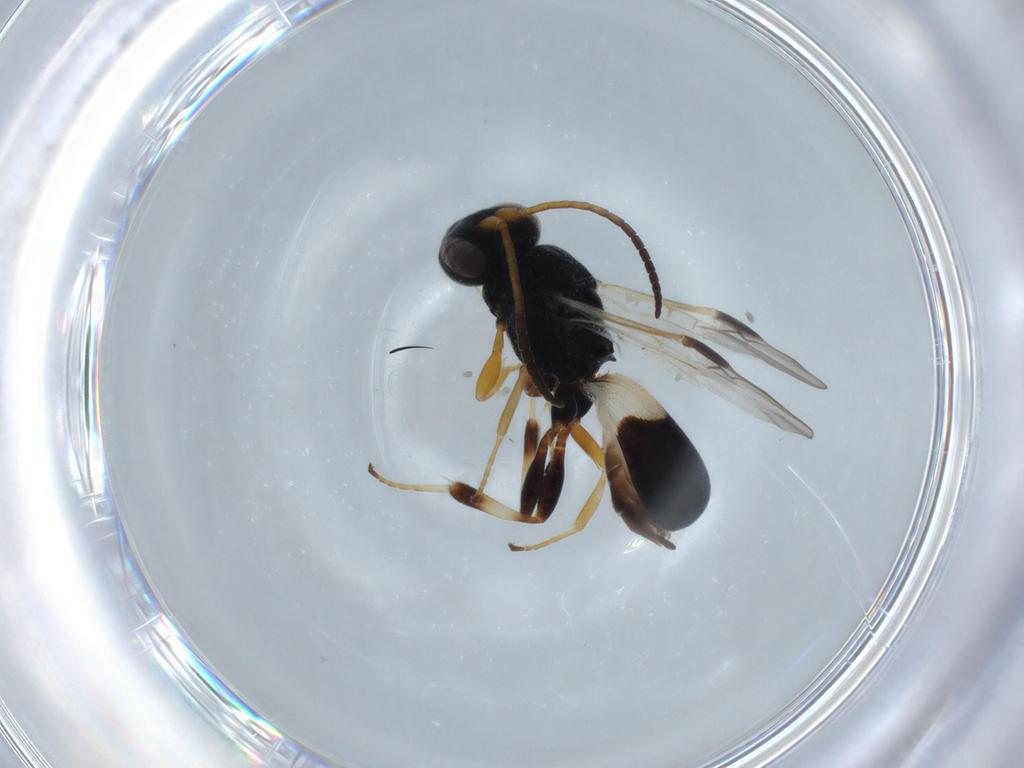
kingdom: Animalia
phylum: Arthropoda
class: Insecta
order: Hymenoptera
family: Braconidae
